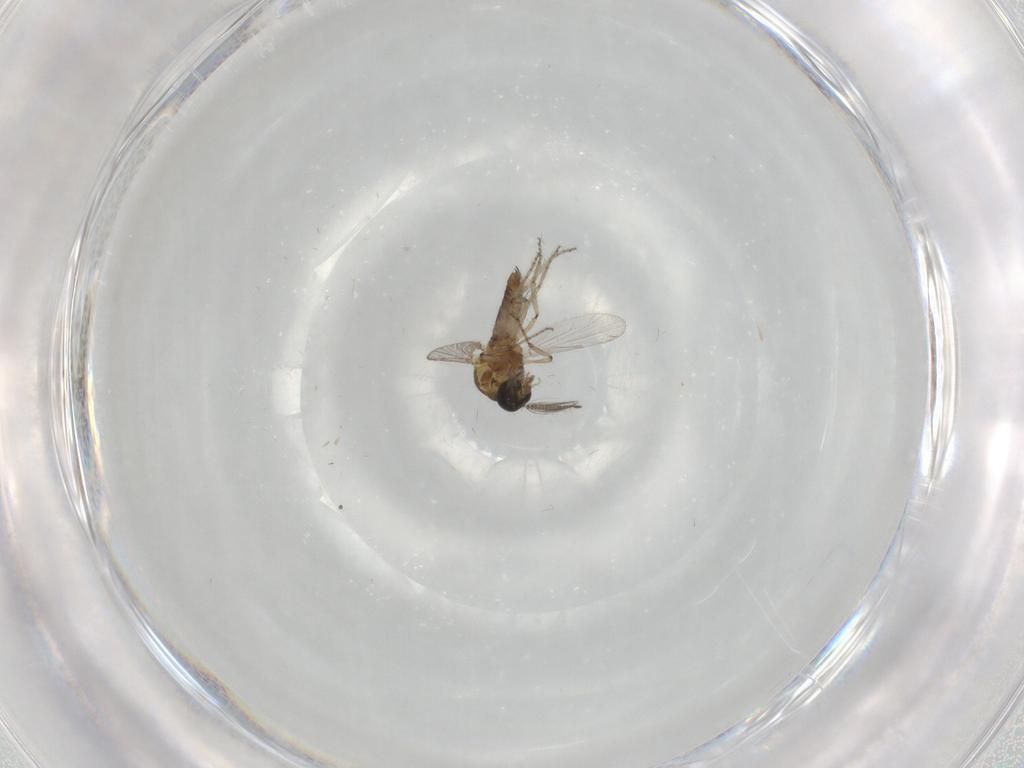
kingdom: Animalia
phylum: Arthropoda
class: Insecta
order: Diptera
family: Ceratopogonidae
